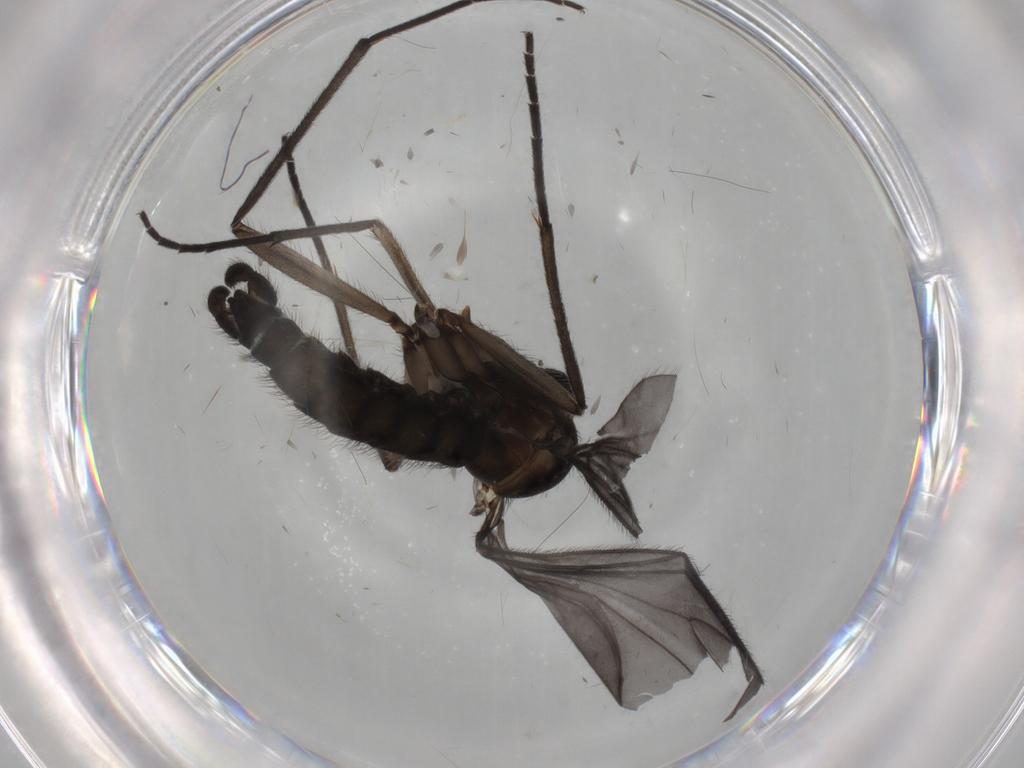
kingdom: Animalia
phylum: Arthropoda
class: Insecta
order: Diptera
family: Sciaridae
